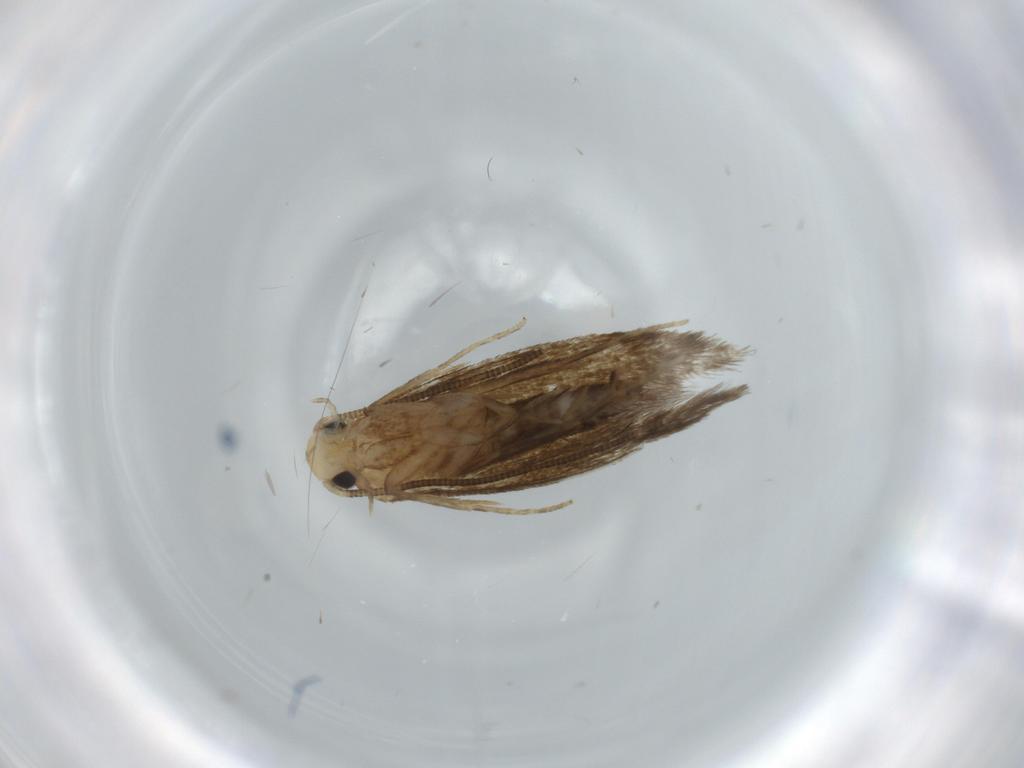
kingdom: Animalia
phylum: Arthropoda
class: Insecta
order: Lepidoptera
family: Tineidae
